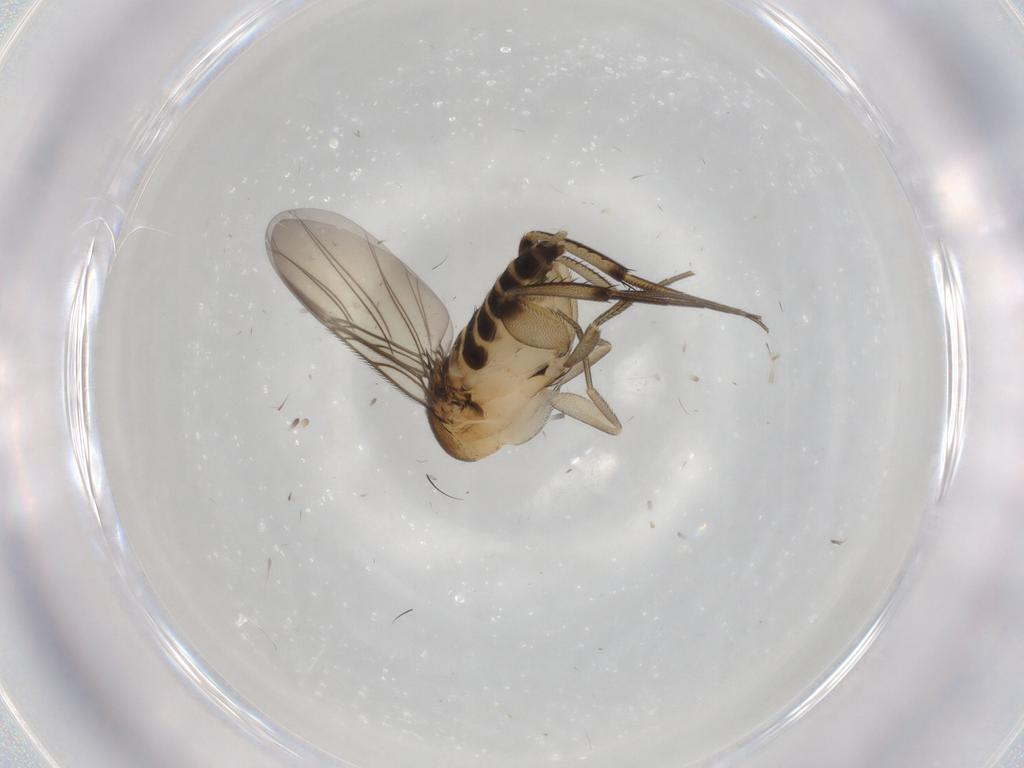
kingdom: Animalia
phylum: Arthropoda
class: Insecta
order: Diptera
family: Phoridae
